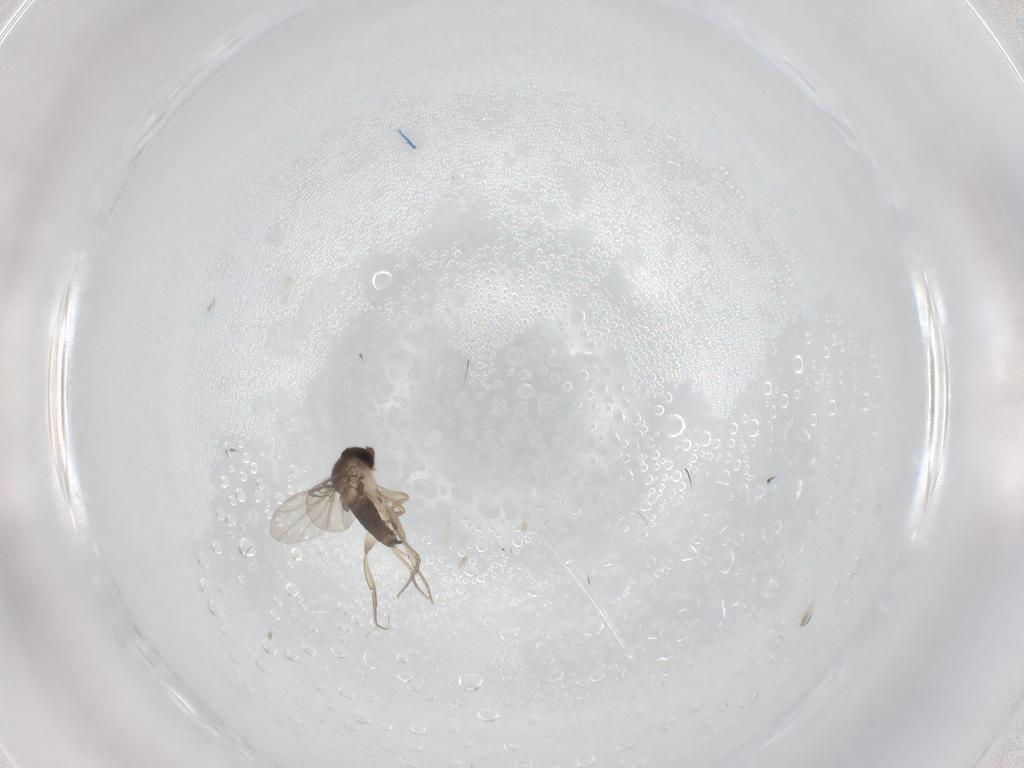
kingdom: Animalia
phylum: Arthropoda
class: Insecta
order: Diptera
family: Phoridae
